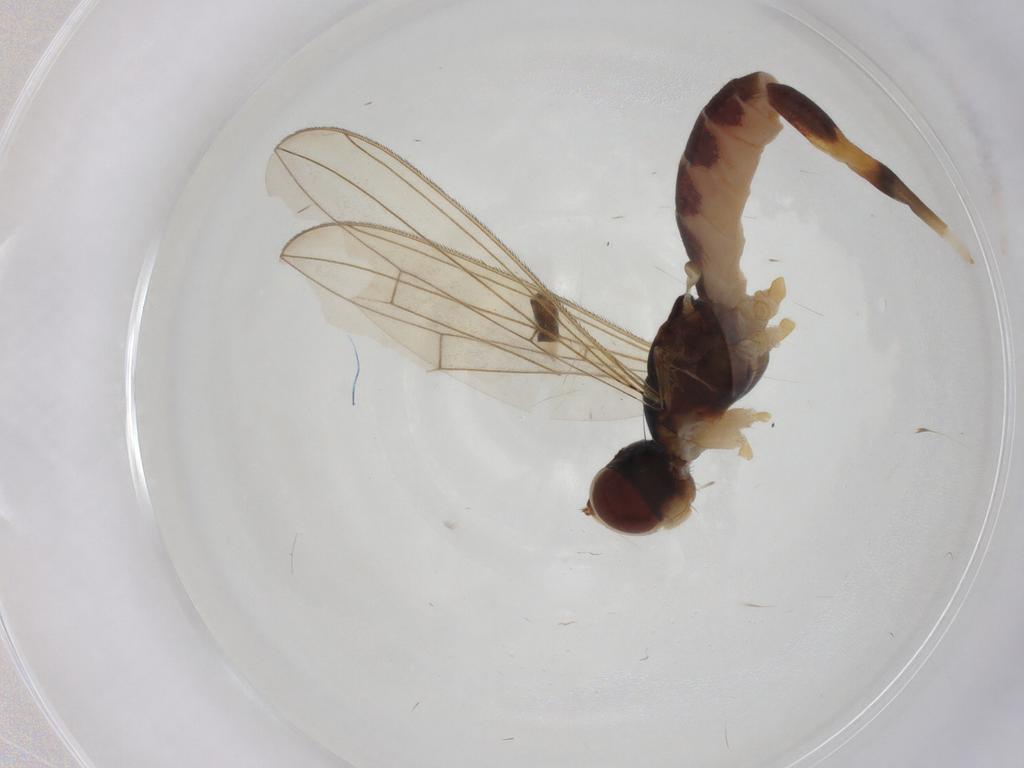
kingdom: Animalia
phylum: Arthropoda
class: Insecta
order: Diptera
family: Micropezidae
